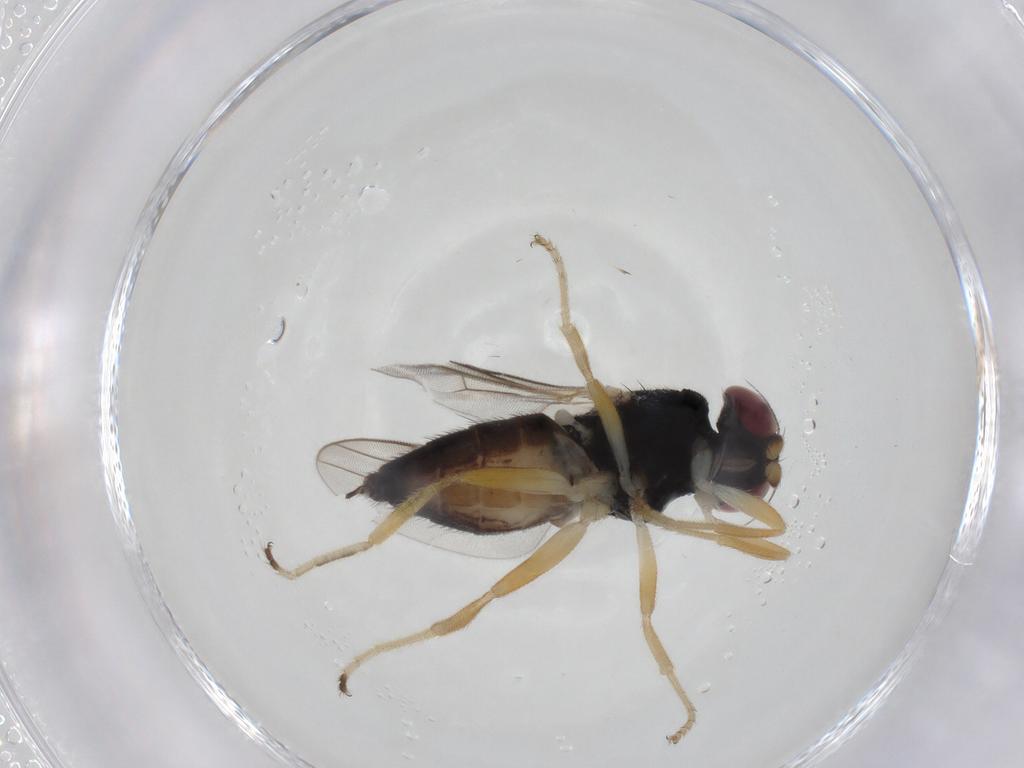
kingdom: Animalia
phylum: Arthropoda
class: Insecta
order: Diptera
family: Chloropidae
